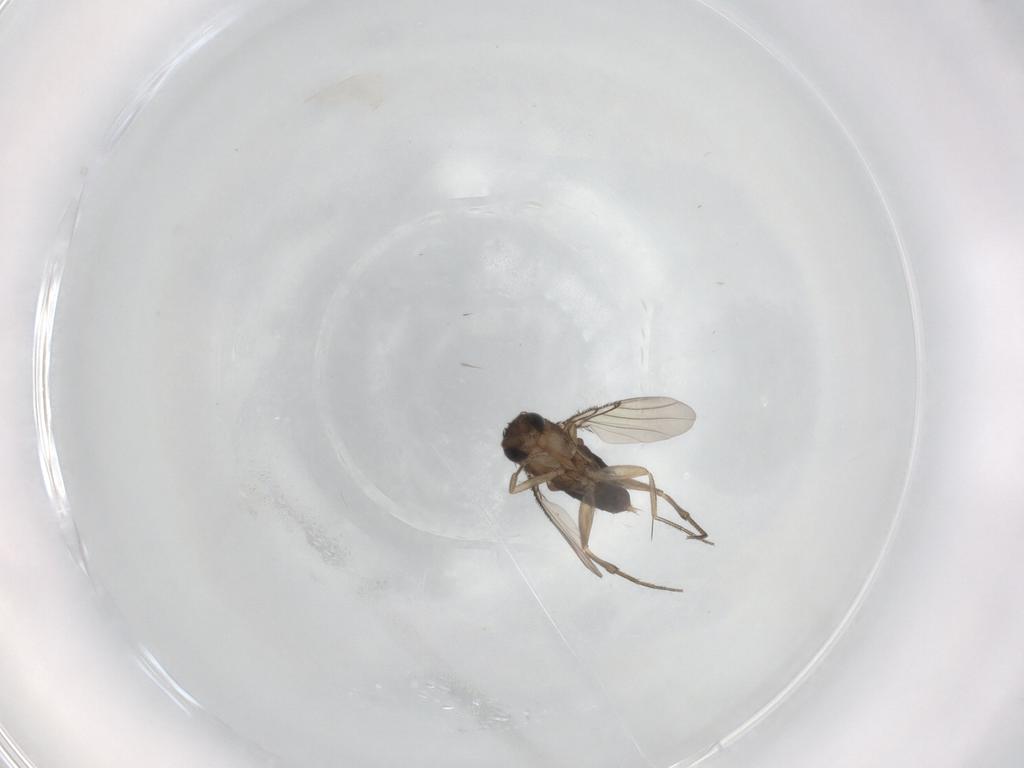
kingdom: Animalia
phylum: Arthropoda
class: Insecta
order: Diptera
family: Phoridae
